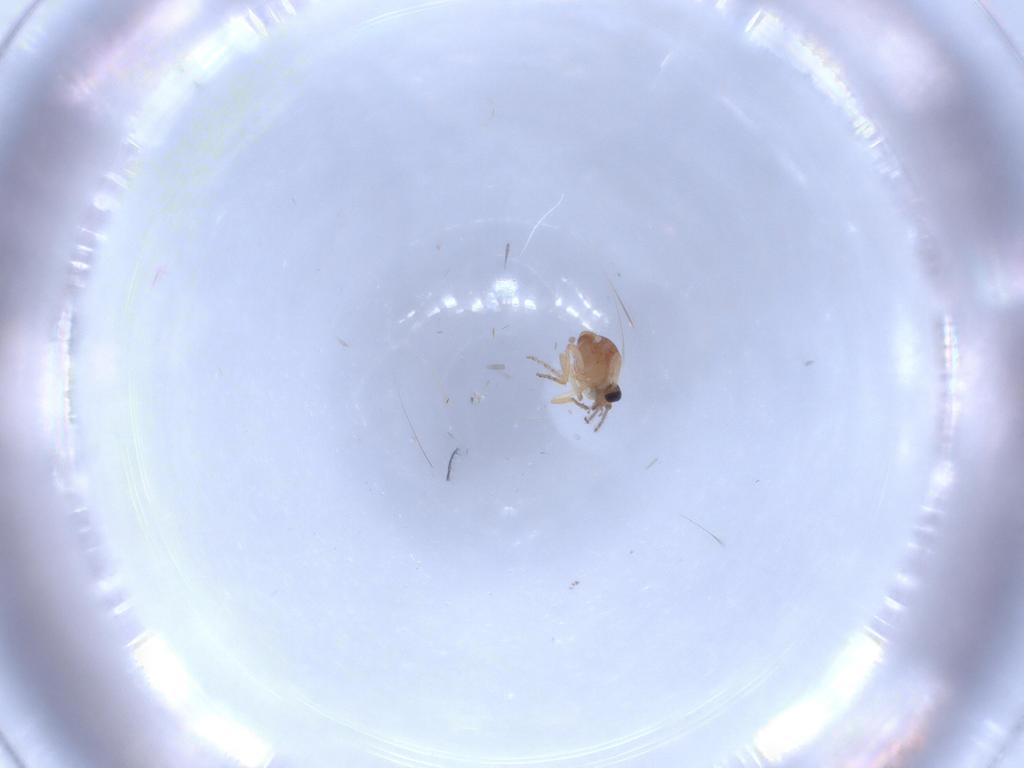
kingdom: Animalia
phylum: Arthropoda
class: Insecta
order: Diptera
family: Ceratopogonidae
